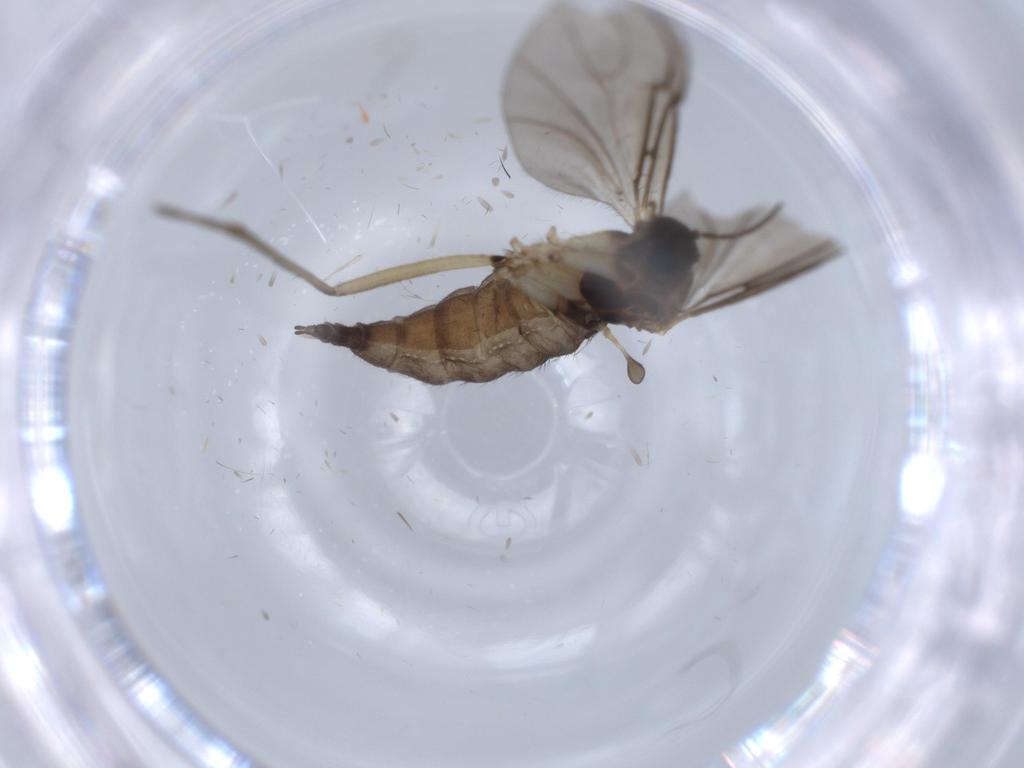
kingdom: Animalia
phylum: Arthropoda
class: Insecta
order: Diptera
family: Sciaridae
